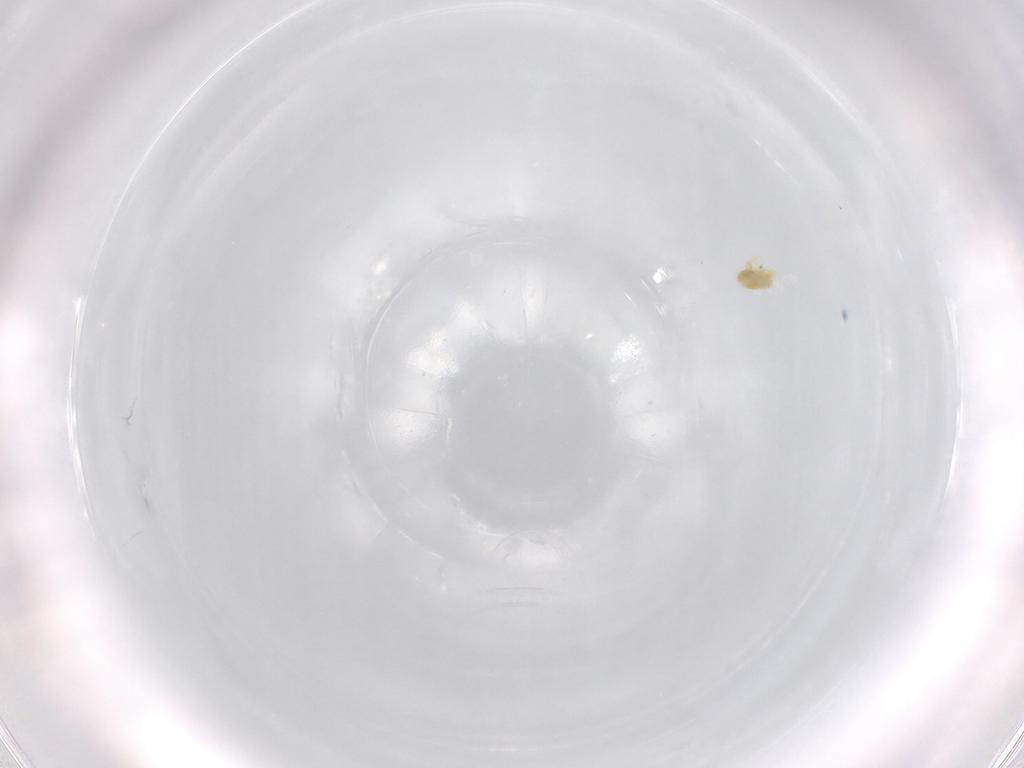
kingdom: Animalia
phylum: Arthropoda
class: Arachnida
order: Trombidiformes
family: Eupodidae
